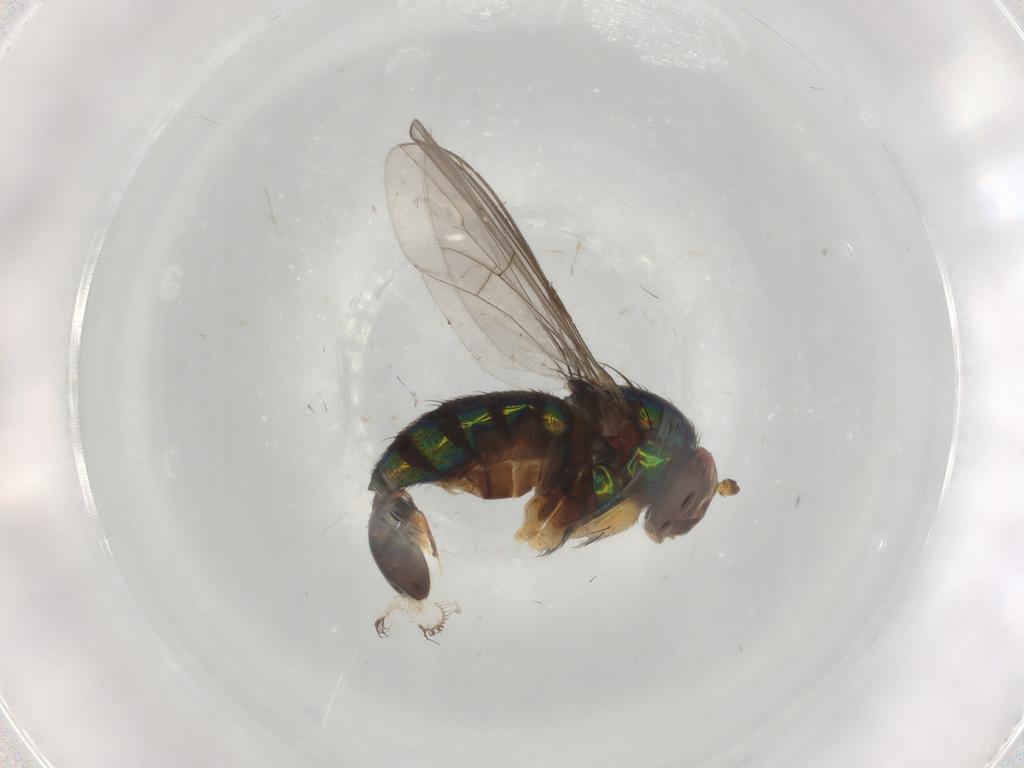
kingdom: Animalia
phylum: Arthropoda
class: Insecta
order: Diptera
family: Dolichopodidae
